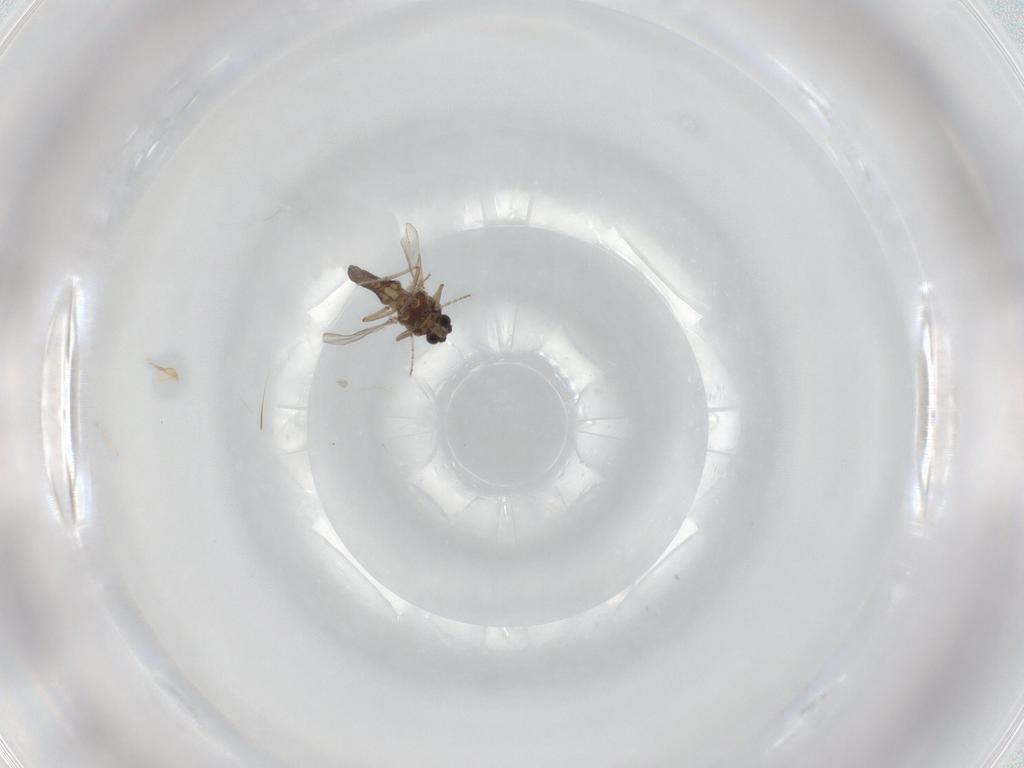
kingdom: Animalia
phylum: Arthropoda
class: Insecta
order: Diptera
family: Ceratopogonidae
